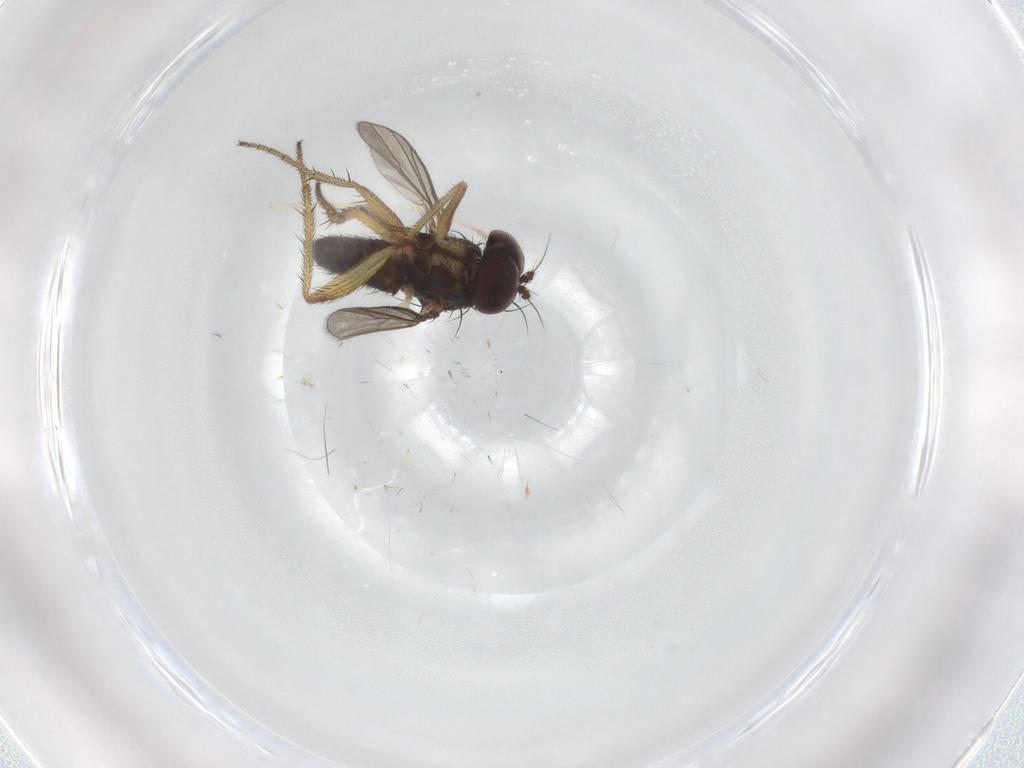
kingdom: Animalia
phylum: Arthropoda
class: Insecta
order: Diptera
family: Dolichopodidae
